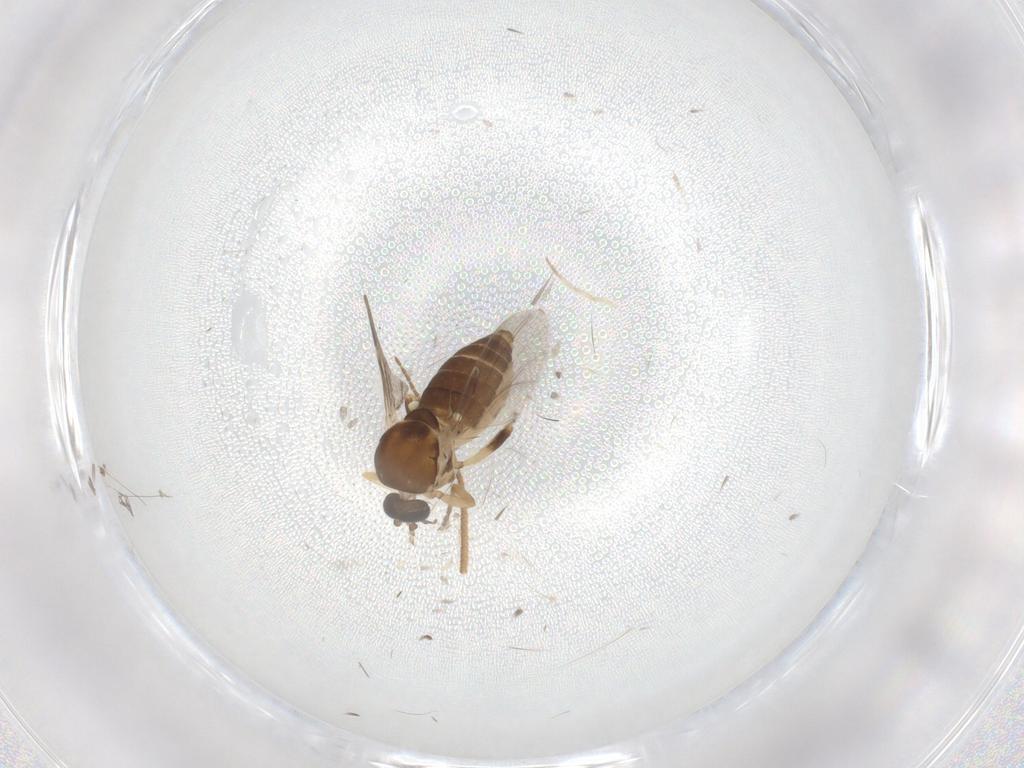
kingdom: Animalia
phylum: Arthropoda
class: Insecta
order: Diptera
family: Ceratopogonidae
